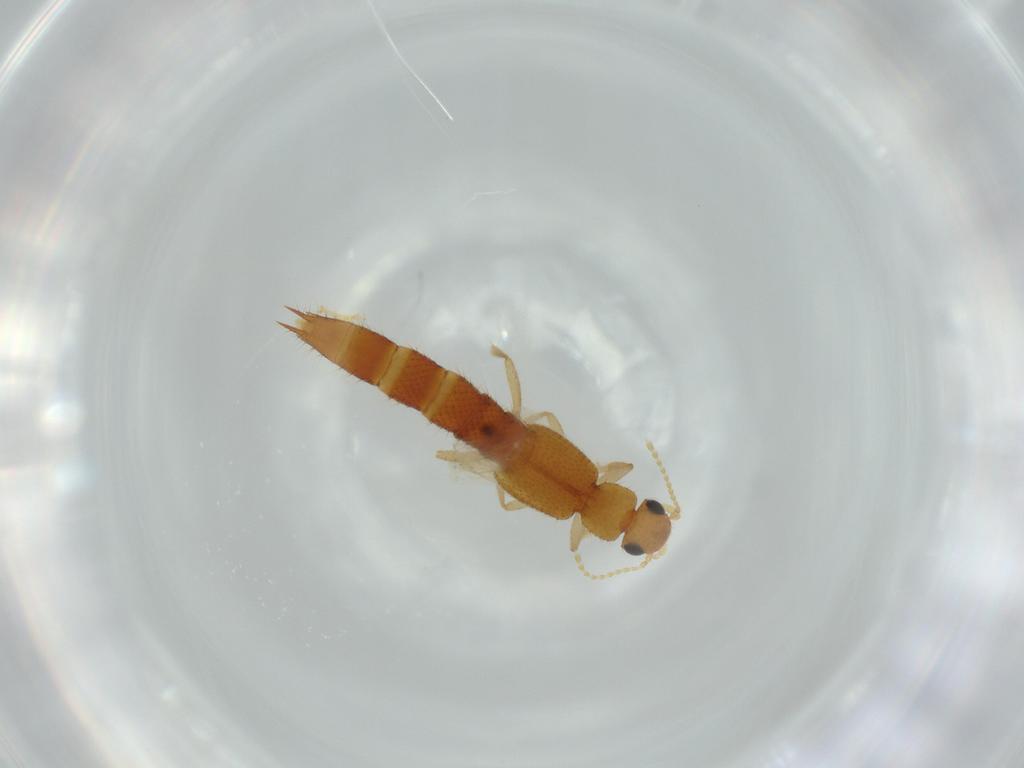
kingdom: Animalia
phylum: Arthropoda
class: Insecta
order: Coleoptera
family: Staphylinidae
